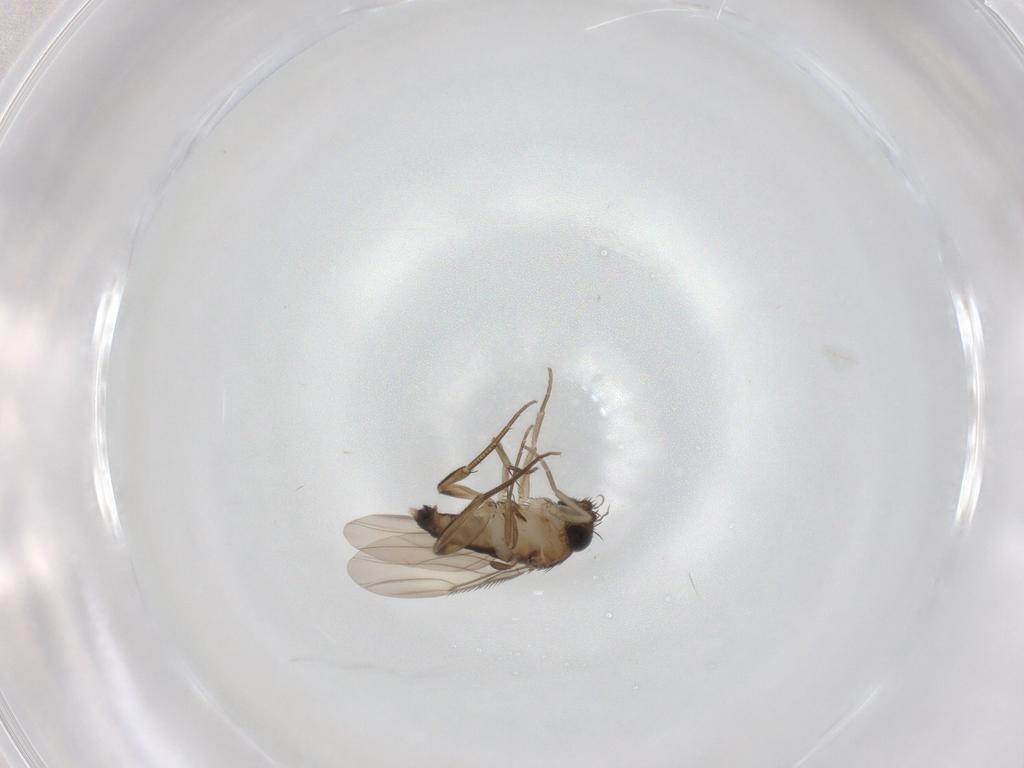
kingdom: Animalia
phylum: Arthropoda
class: Insecta
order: Diptera
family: Phoridae
